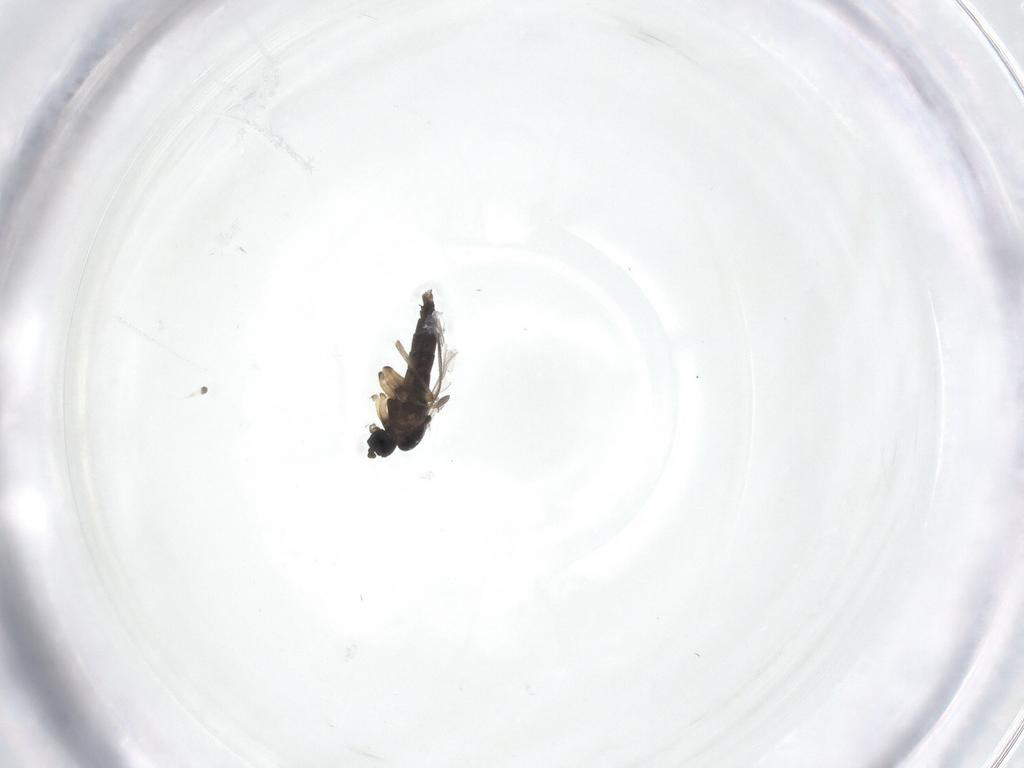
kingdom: Animalia
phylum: Arthropoda
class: Insecta
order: Diptera
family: Sciaridae
